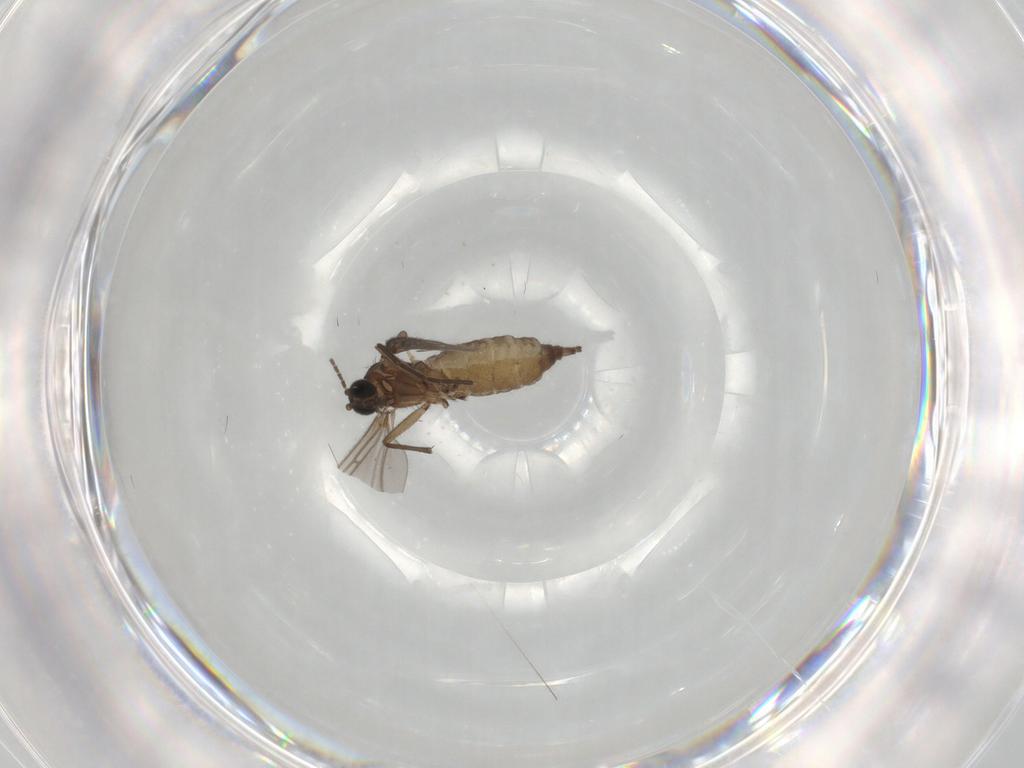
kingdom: Animalia
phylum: Arthropoda
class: Insecta
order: Diptera
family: Sciaridae
